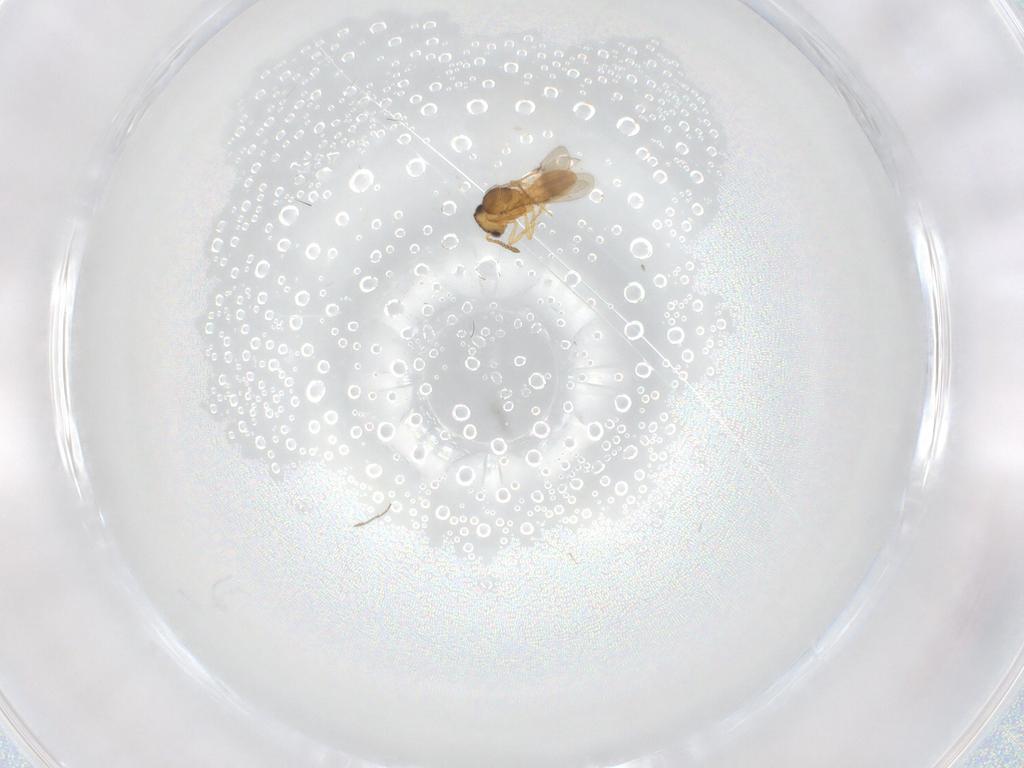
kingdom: Animalia
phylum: Arthropoda
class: Insecta
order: Hymenoptera
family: Scelionidae
